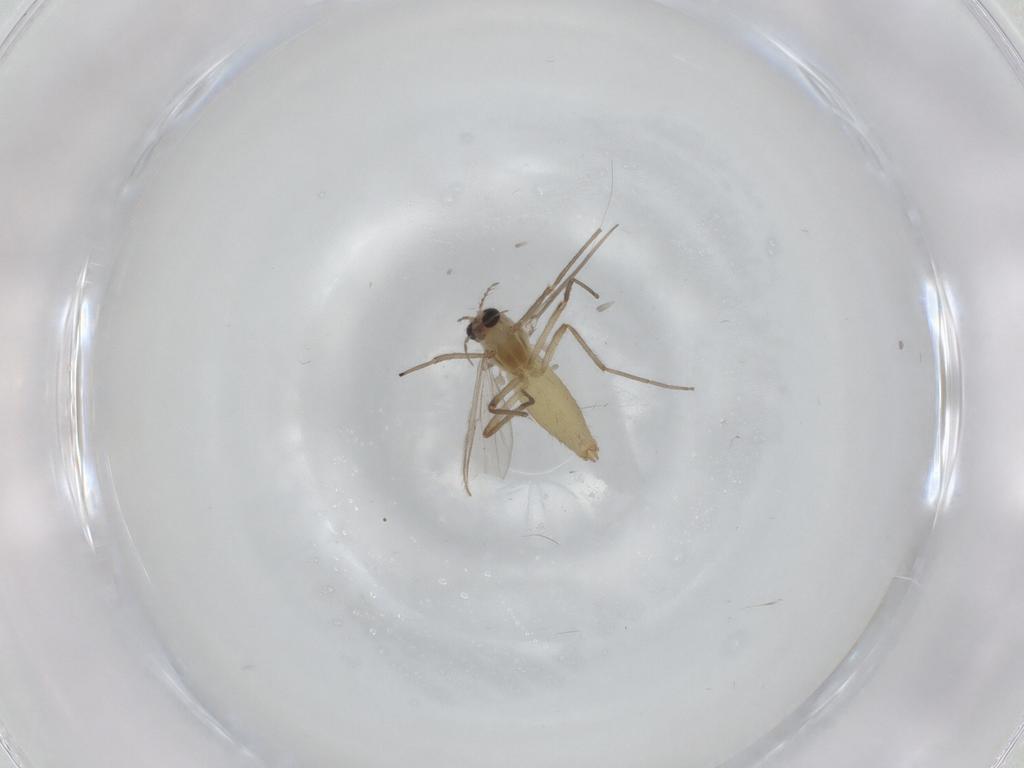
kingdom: Animalia
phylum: Arthropoda
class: Insecta
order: Diptera
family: Chironomidae
